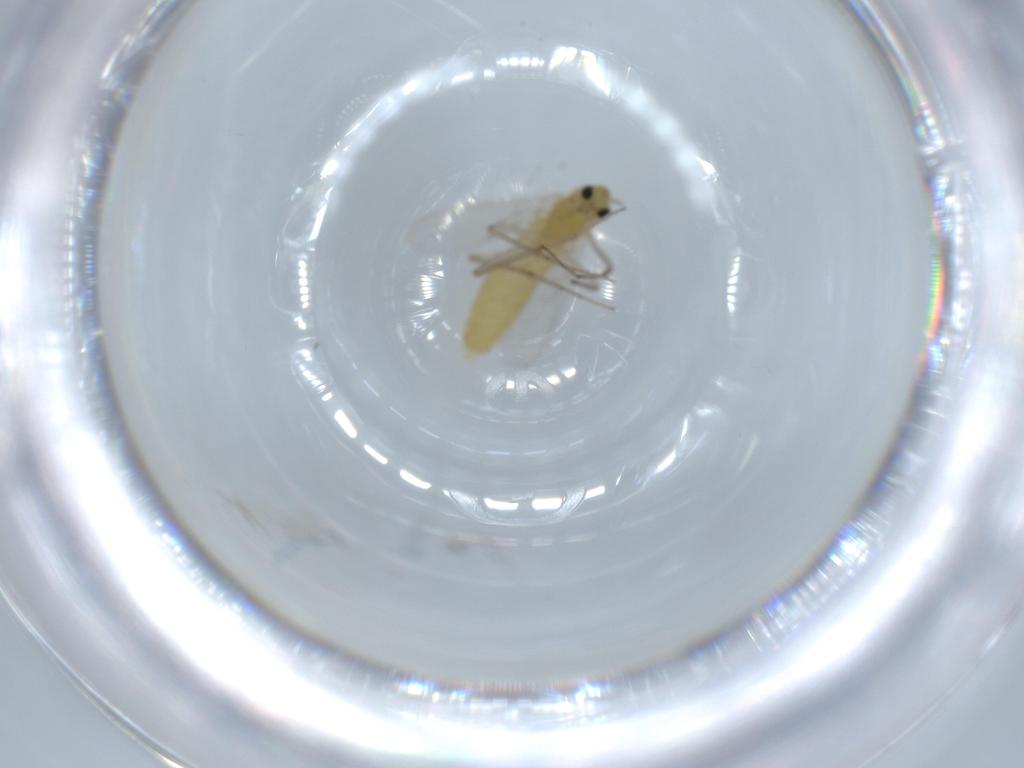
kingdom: Animalia
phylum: Arthropoda
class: Insecta
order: Diptera
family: Chironomidae
